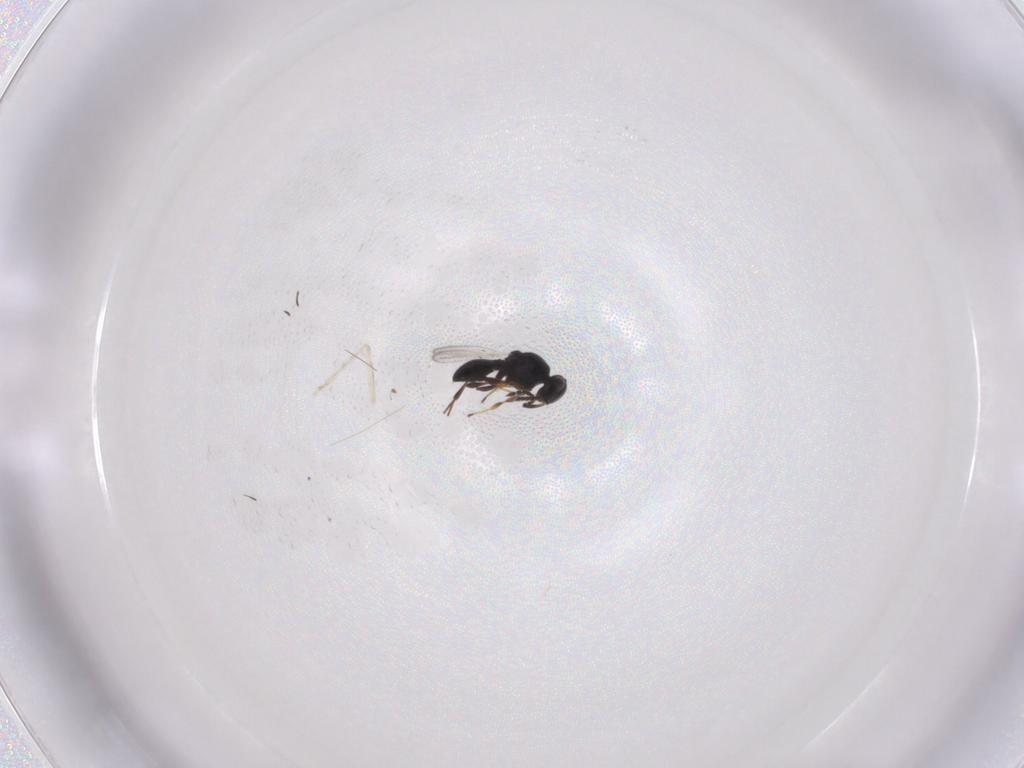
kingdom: Animalia
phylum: Arthropoda
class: Insecta
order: Hymenoptera
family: Platygastridae
